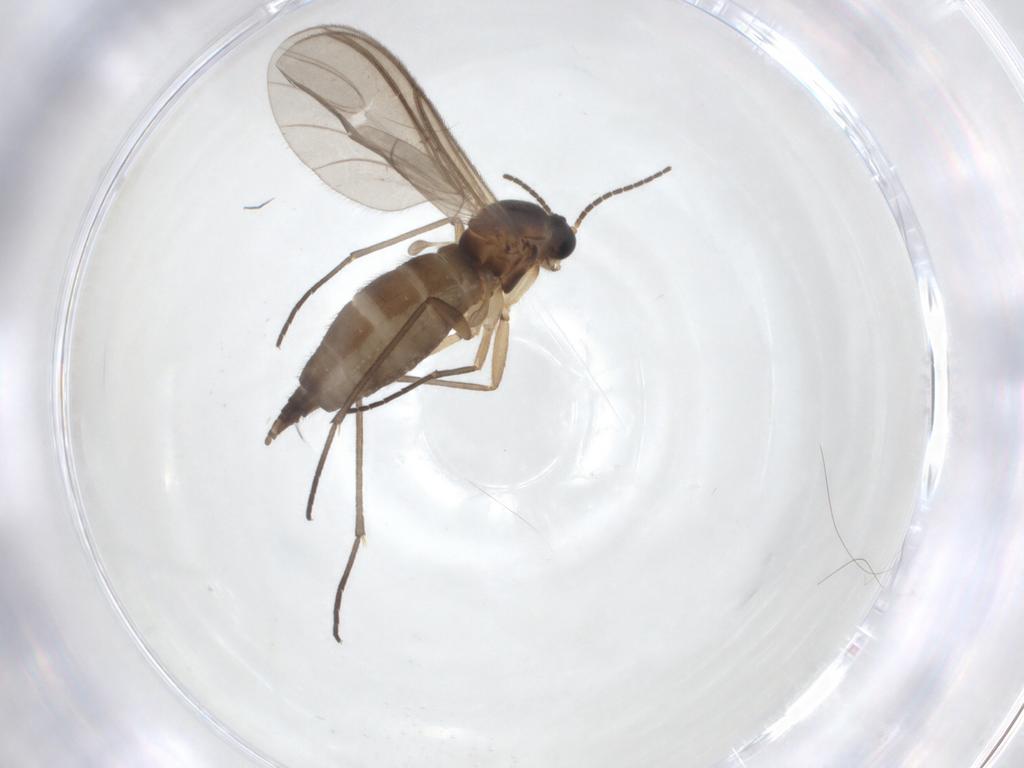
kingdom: Animalia
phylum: Arthropoda
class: Insecta
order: Diptera
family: Sciaridae
